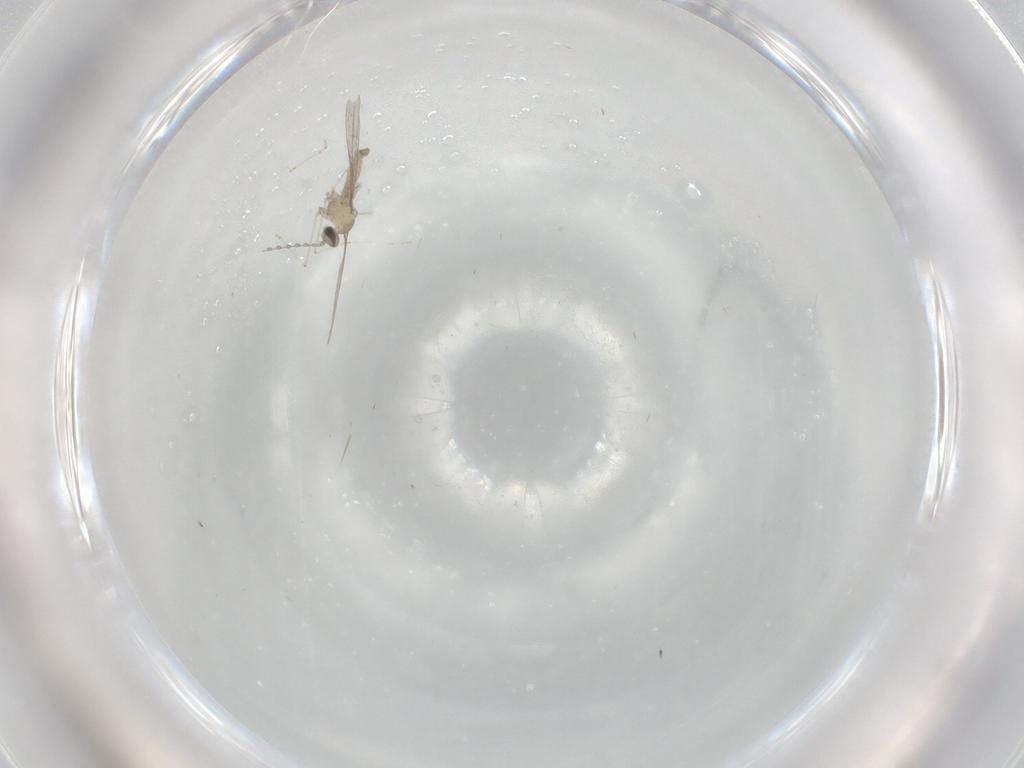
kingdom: Animalia
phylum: Arthropoda
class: Insecta
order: Diptera
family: Cecidomyiidae
